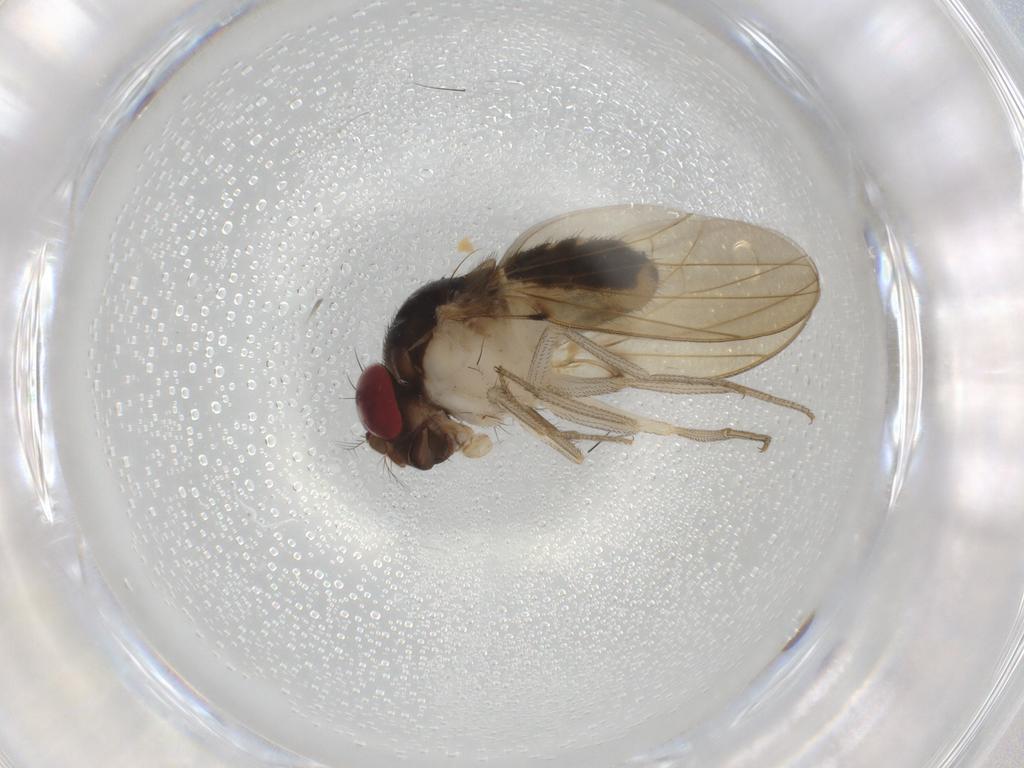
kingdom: Animalia
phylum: Arthropoda
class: Insecta
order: Diptera
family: Drosophilidae
